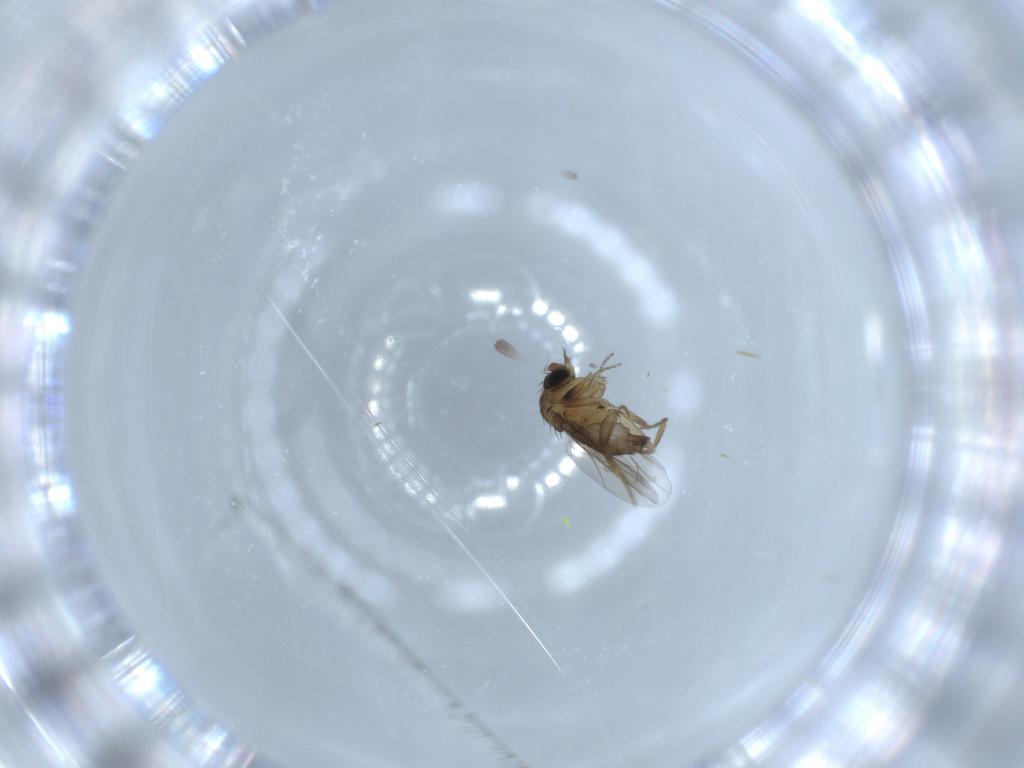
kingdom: Animalia
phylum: Arthropoda
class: Insecta
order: Diptera
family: Phoridae
